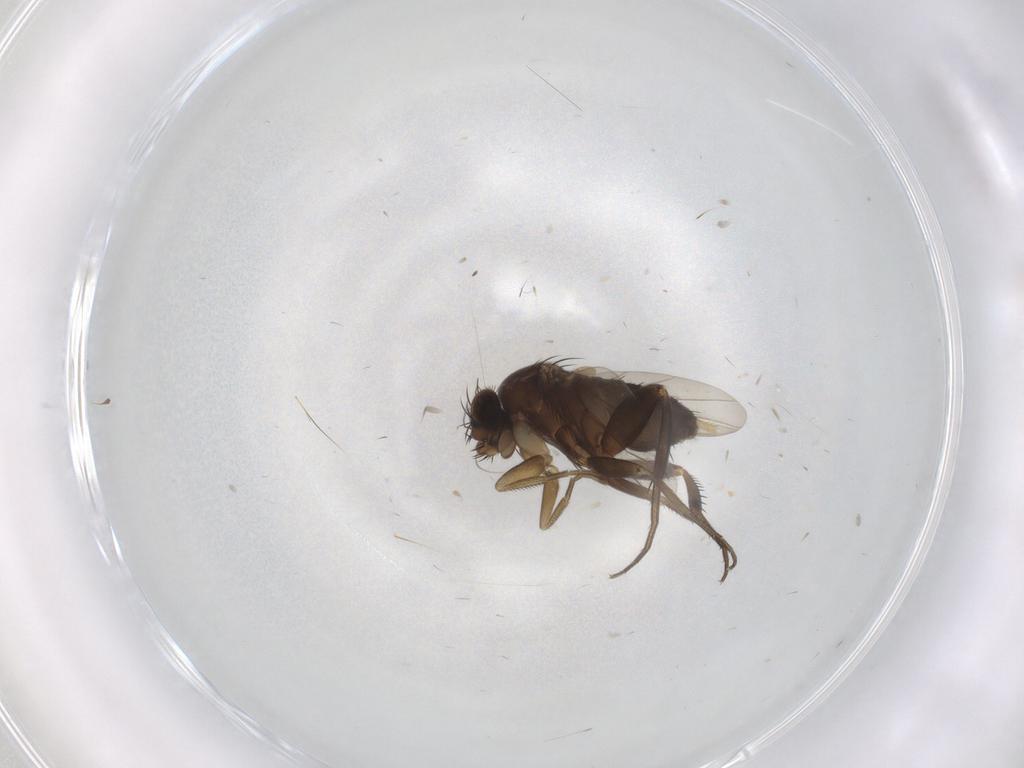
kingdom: Animalia
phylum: Arthropoda
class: Insecta
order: Diptera
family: Phoridae
